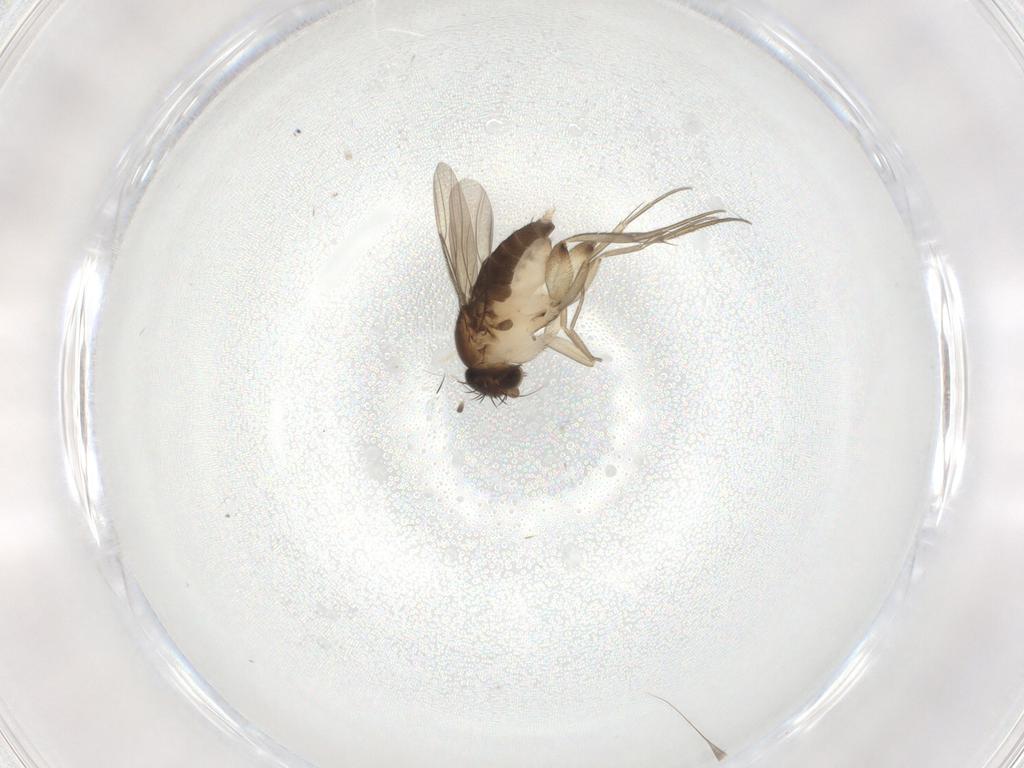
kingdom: Animalia
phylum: Arthropoda
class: Insecta
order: Diptera
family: Phoridae
